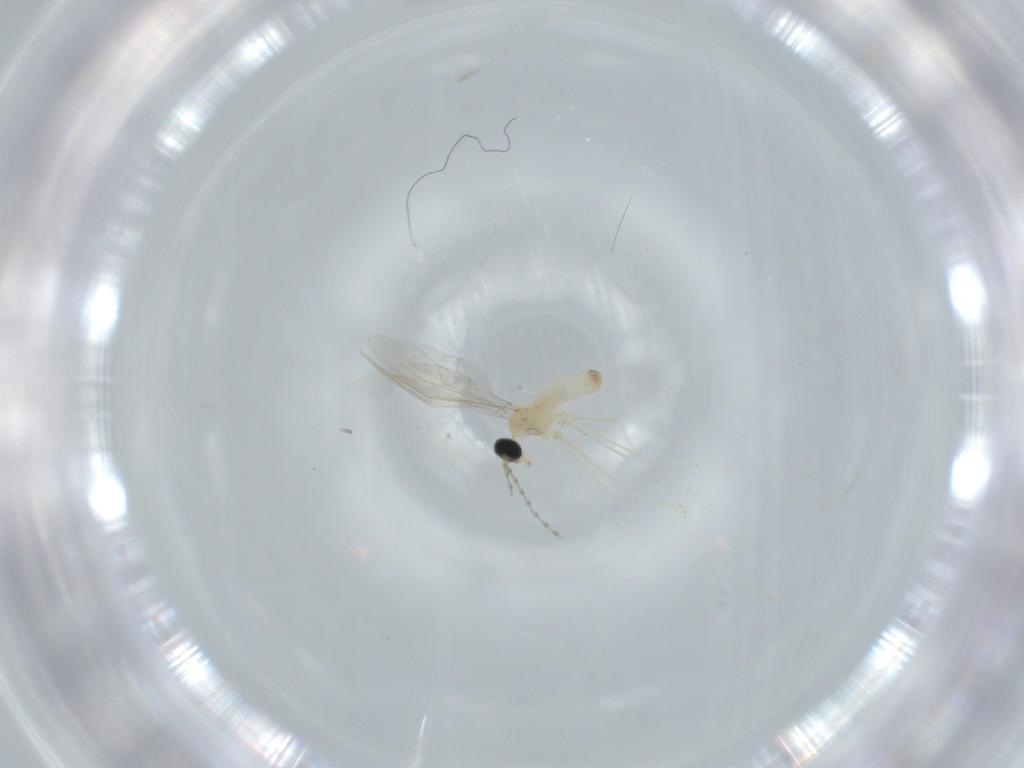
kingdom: Animalia
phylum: Arthropoda
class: Insecta
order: Diptera
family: Cecidomyiidae
